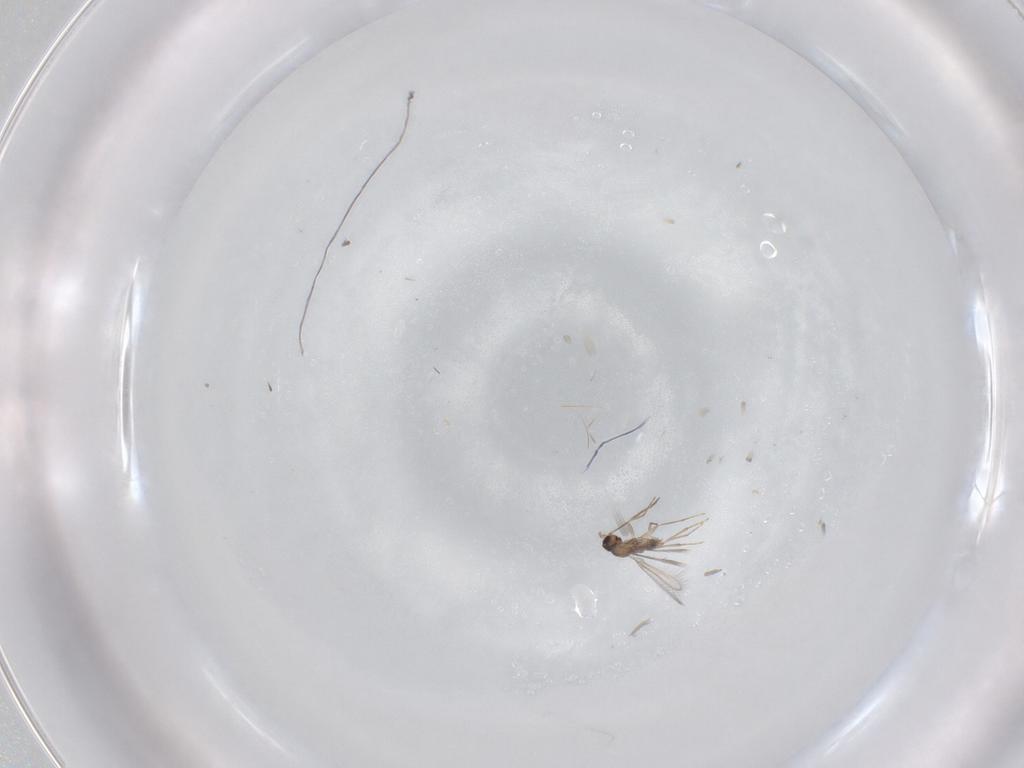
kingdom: Animalia
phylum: Arthropoda
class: Insecta
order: Hymenoptera
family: Mymaridae
